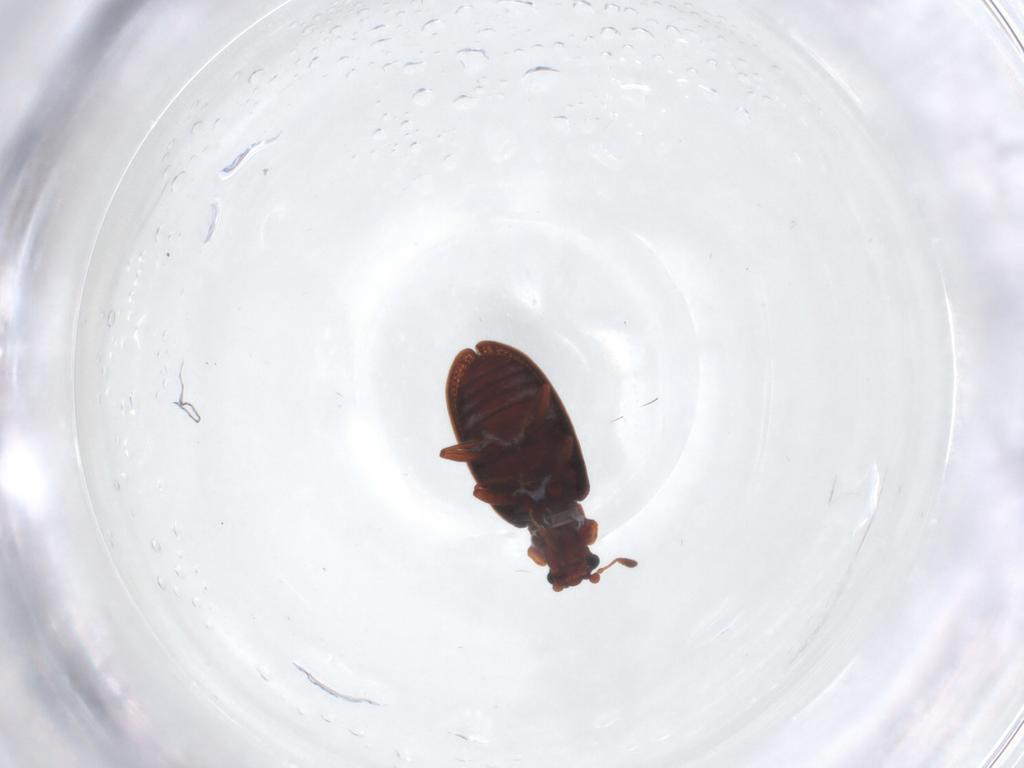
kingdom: Animalia
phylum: Arthropoda
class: Insecta
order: Coleoptera
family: Latridiidae
